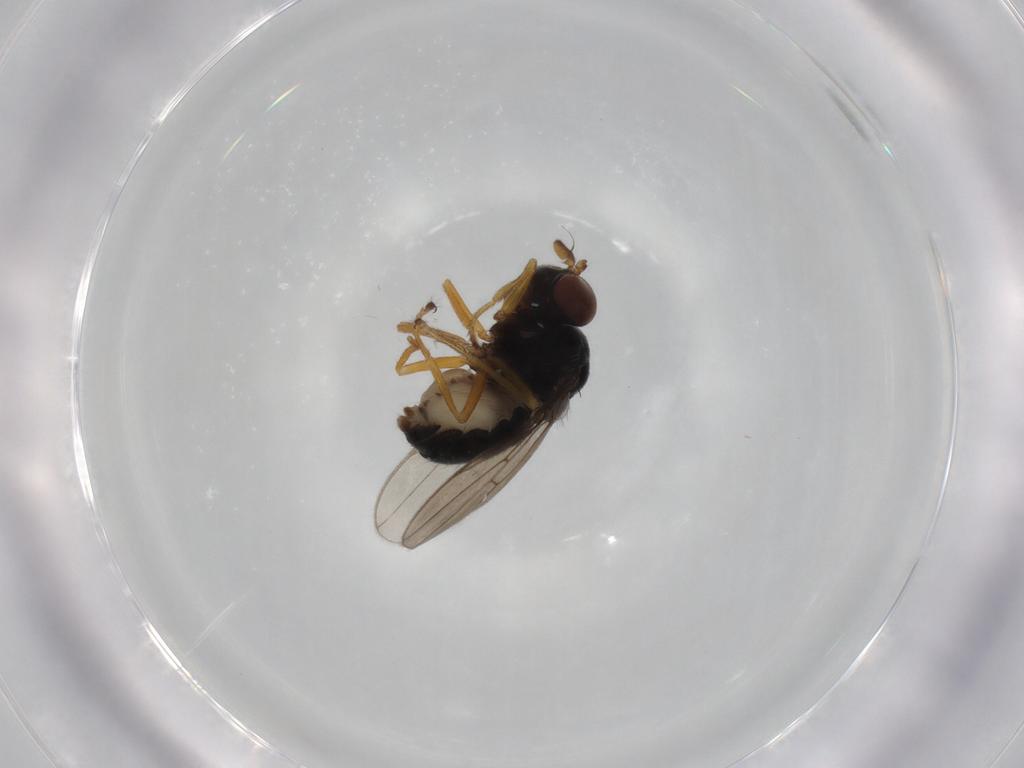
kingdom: Animalia
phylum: Arthropoda
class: Insecta
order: Diptera
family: Ephydridae
